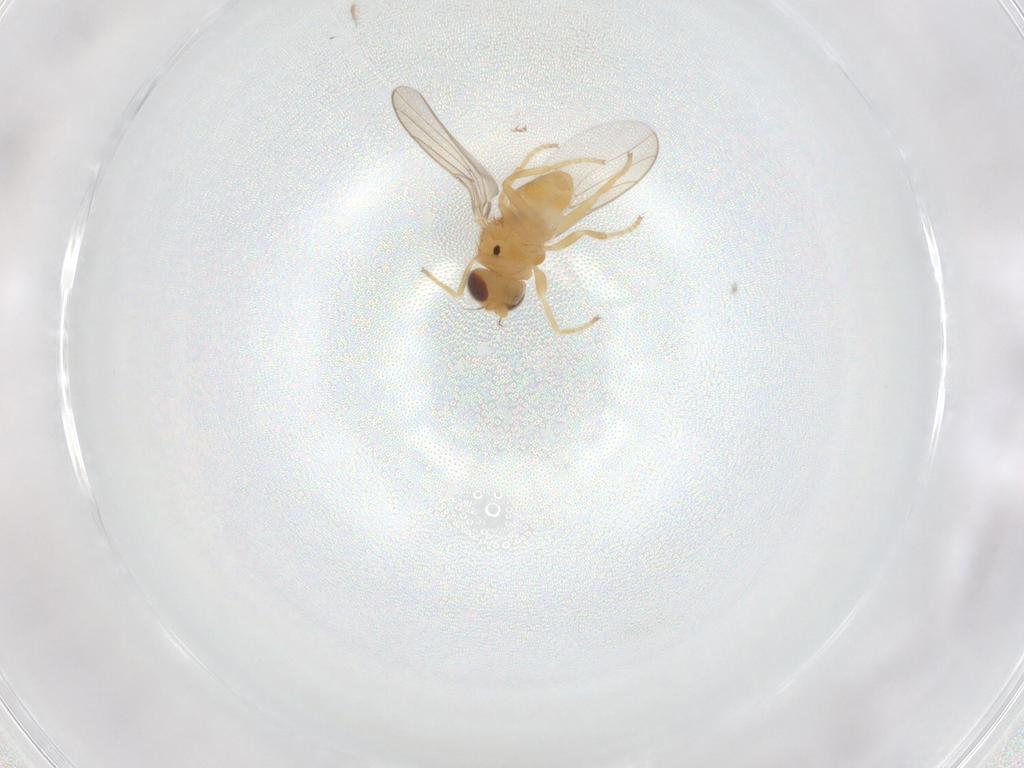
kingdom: Animalia
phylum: Arthropoda
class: Insecta
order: Diptera
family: Chloropidae
